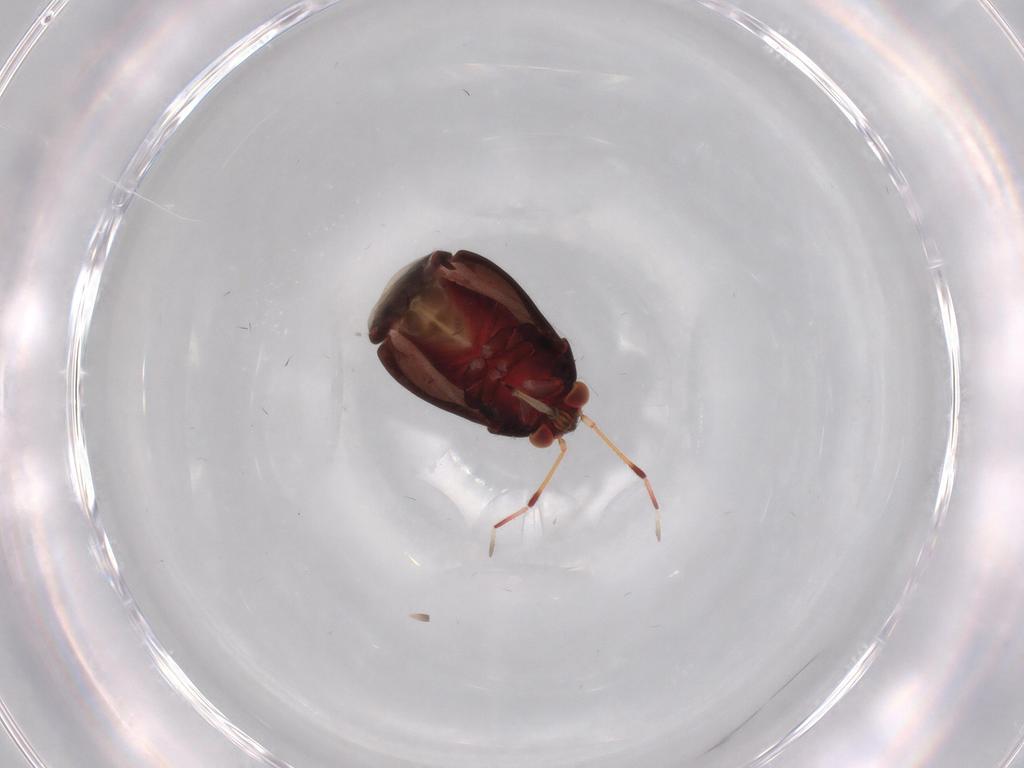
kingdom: Animalia
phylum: Arthropoda
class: Insecta
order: Hemiptera
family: Miridae
